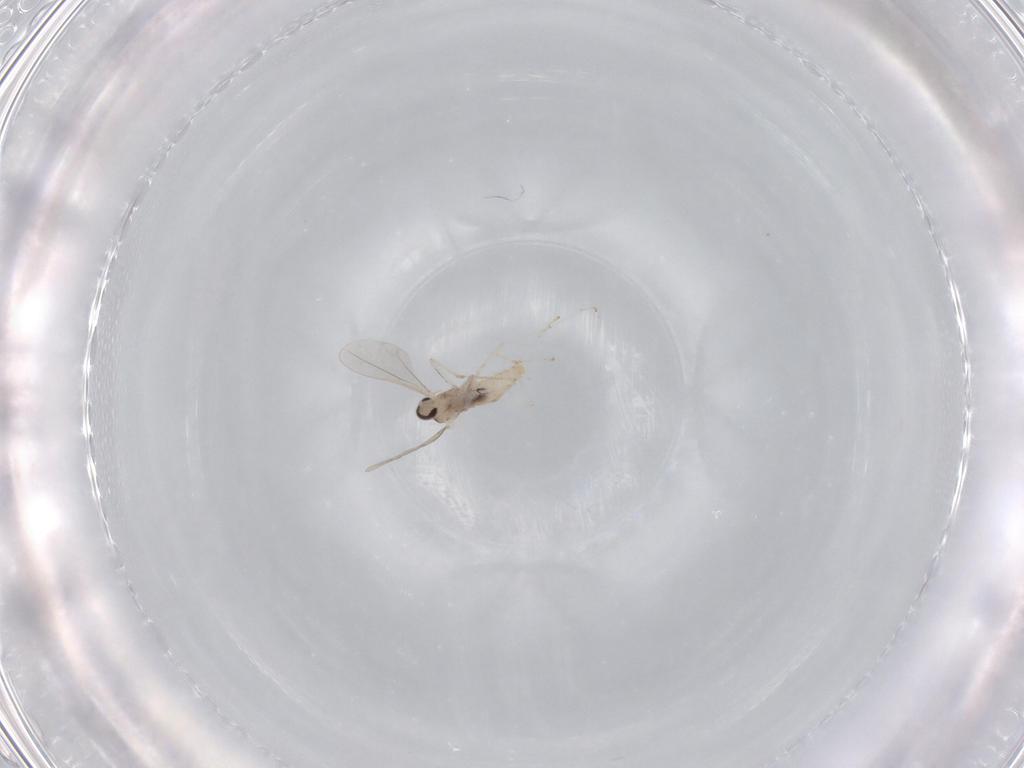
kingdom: Animalia
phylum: Arthropoda
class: Insecta
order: Diptera
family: Cecidomyiidae
